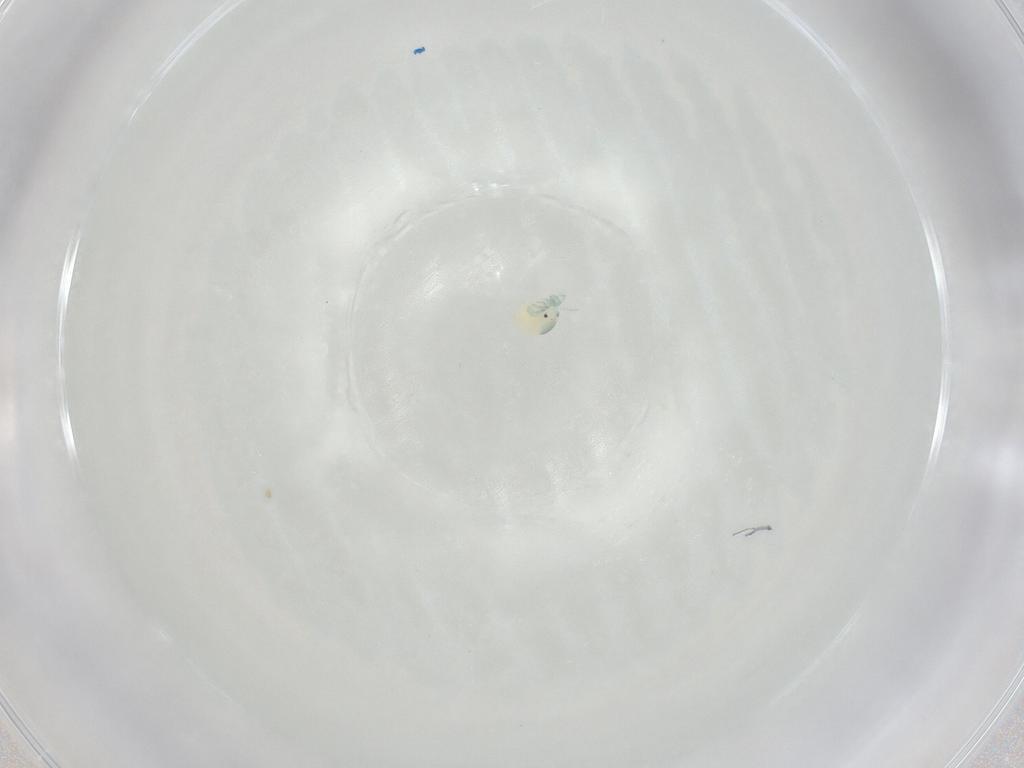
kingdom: Animalia
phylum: Arthropoda
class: Arachnida
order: Trombidiformes
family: Arrenuridae
